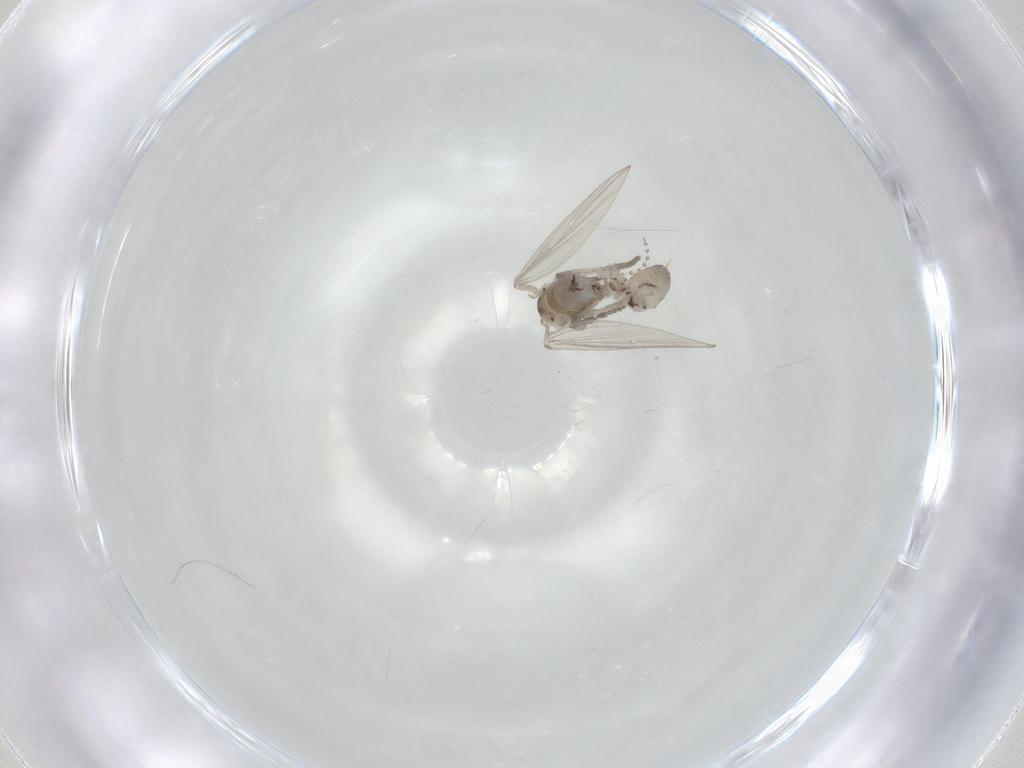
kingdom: Animalia
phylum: Arthropoda
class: Insecta
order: Diptera
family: Psychodidae
